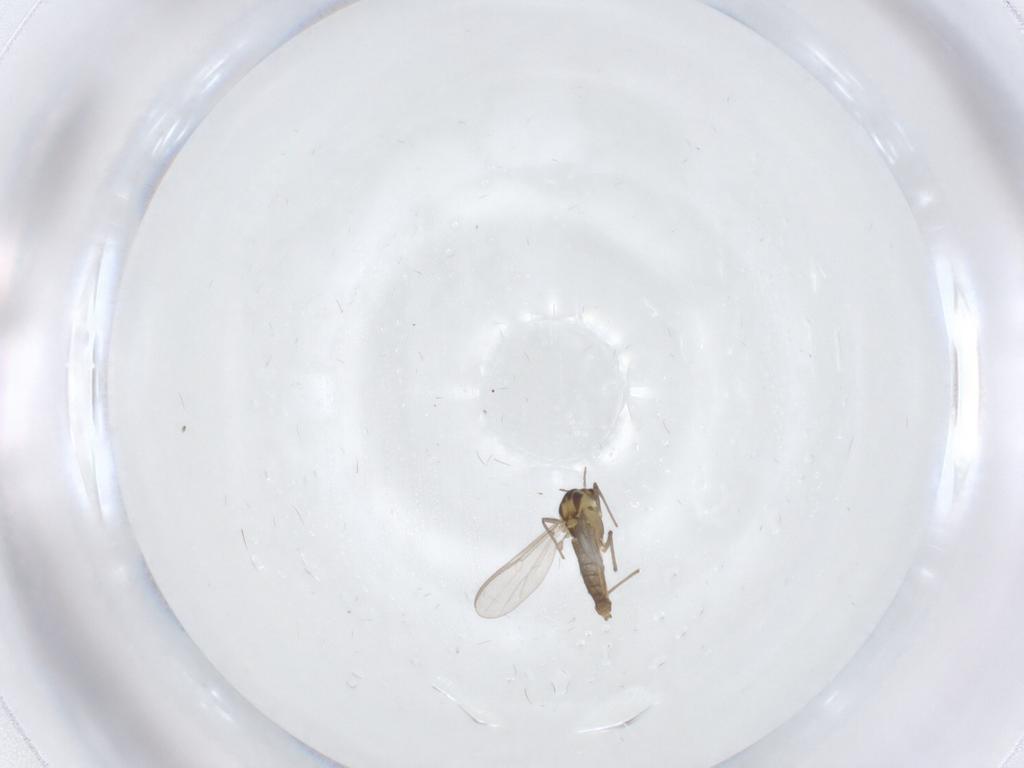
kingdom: Animalia
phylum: Arthropoda
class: Insecta
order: Diptera
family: Chironomidae
